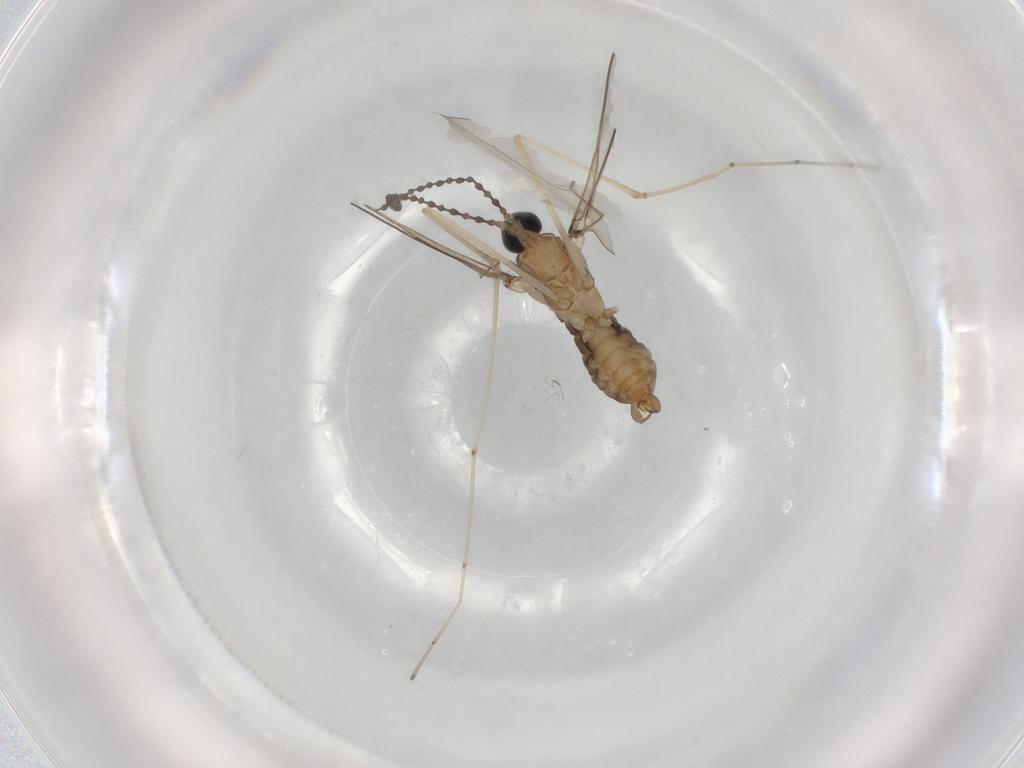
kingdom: Animalia
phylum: Arthropoda
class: Insecta
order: Diptera
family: Cecidomyiidae
